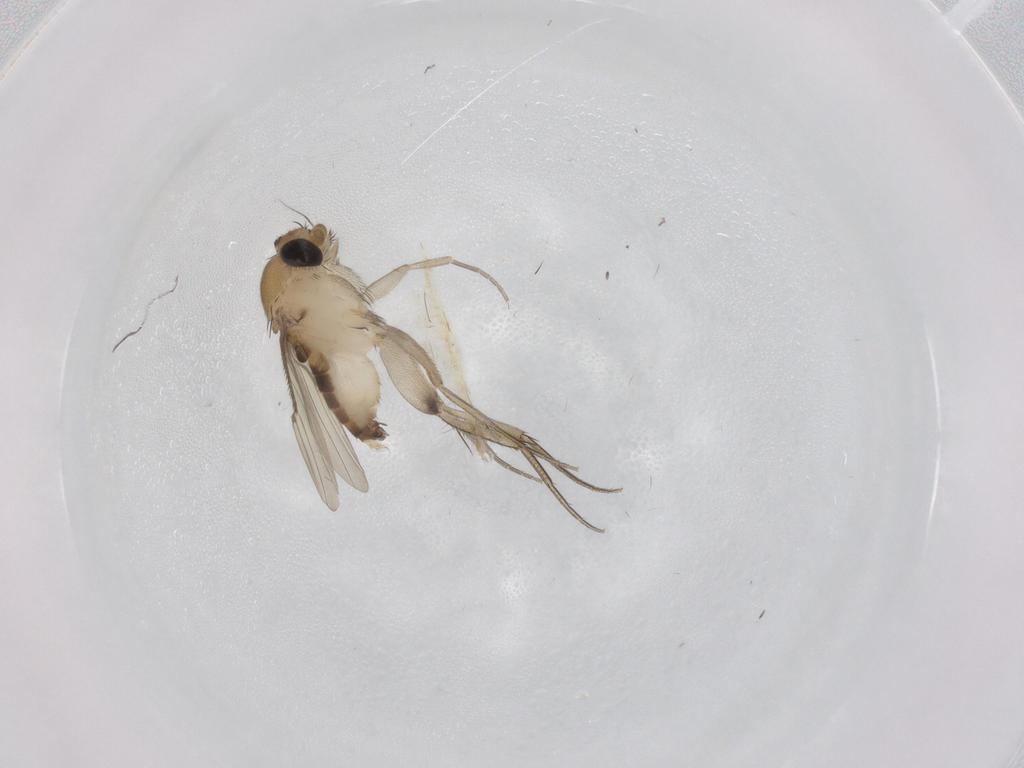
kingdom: Animalia
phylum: Arthropoda
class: Insecta
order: Diptera
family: Phoridae
